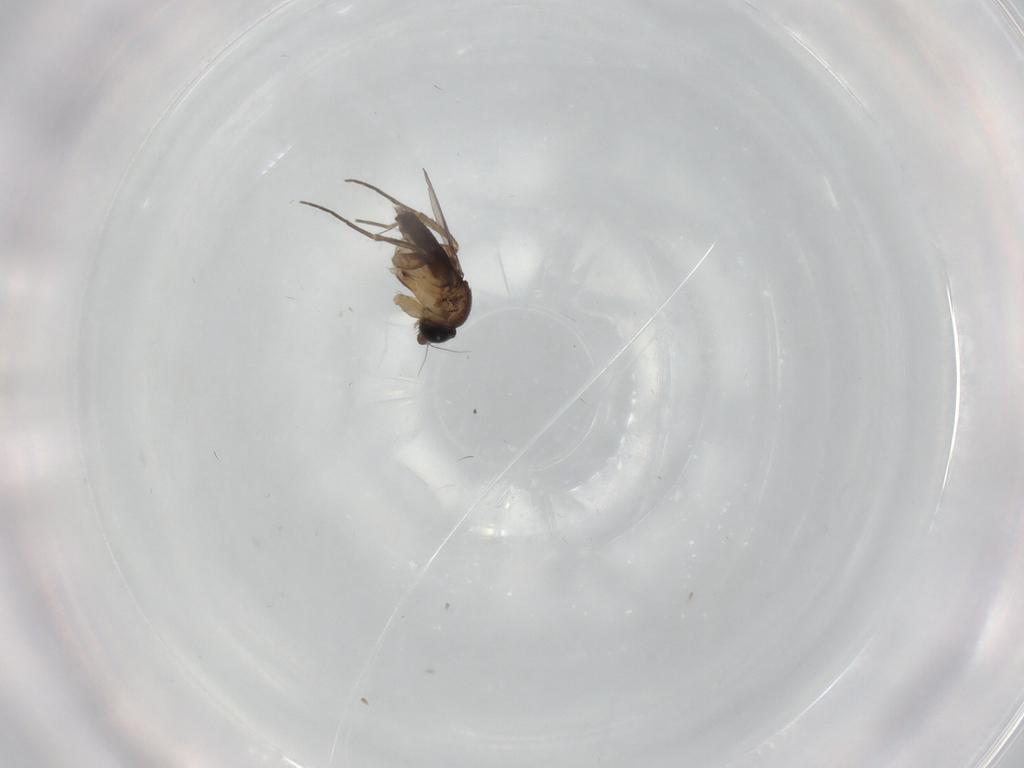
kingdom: Animalia
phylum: Arthropoda
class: Insecta
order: Diptera
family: Phoridae
